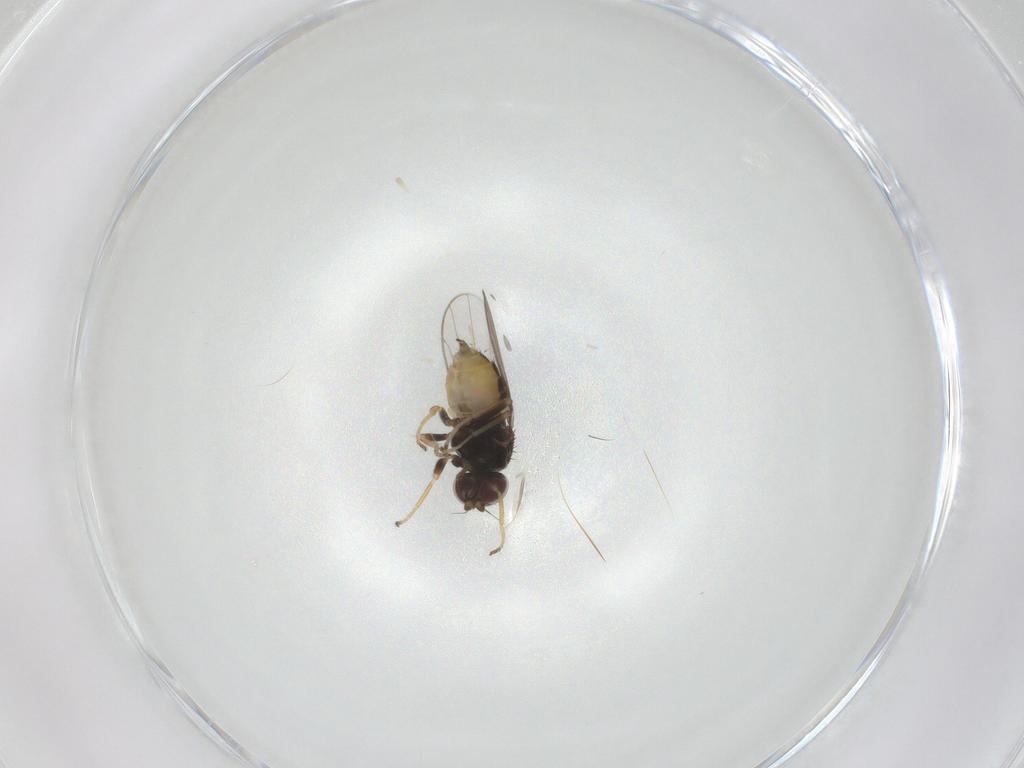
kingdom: Animalia
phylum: Arthropoda
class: Insecta
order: Diptera
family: Chloropidae
